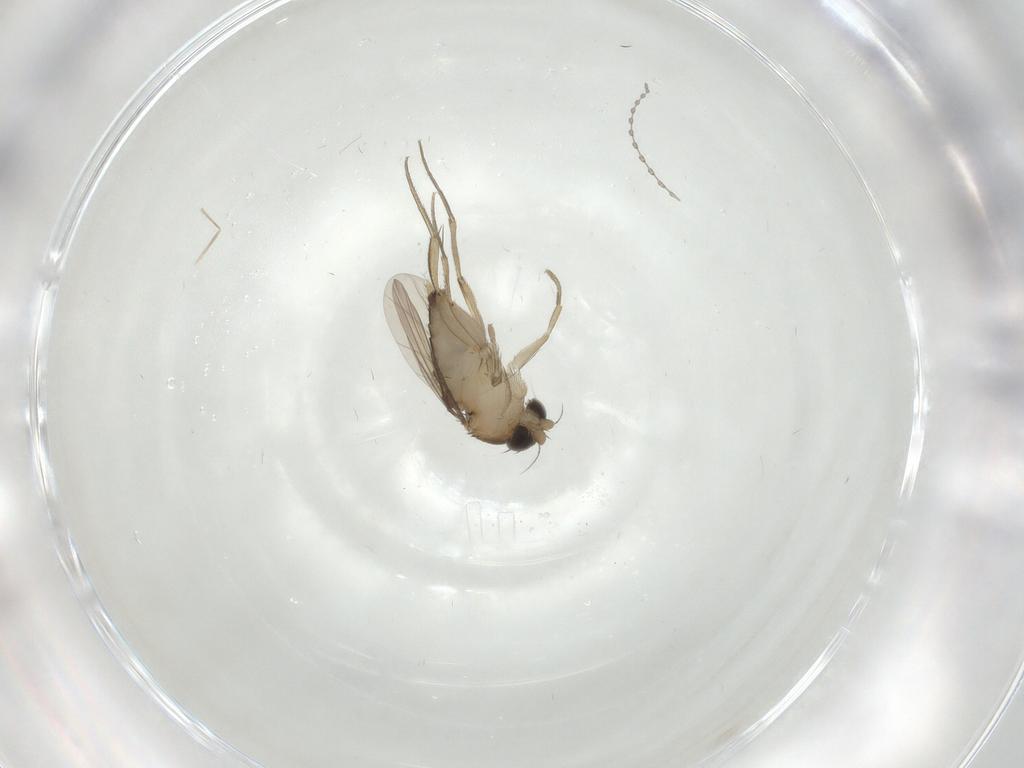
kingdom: Animalia
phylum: Arthropoda
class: Insecta
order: Diptera
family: Phoridae
